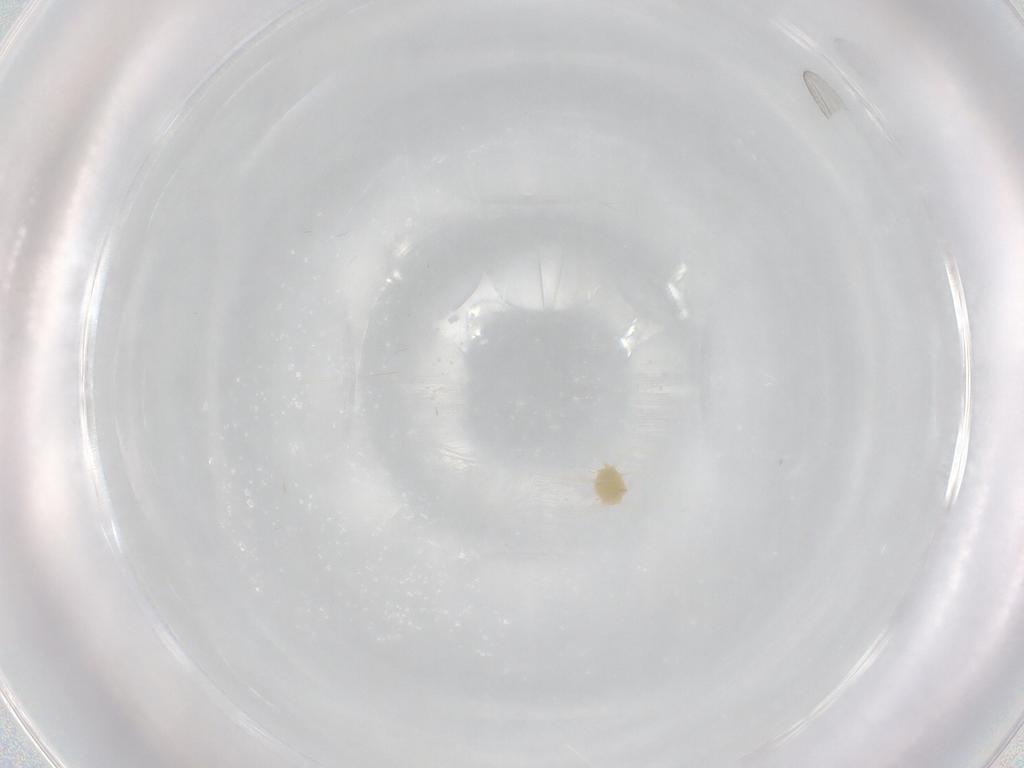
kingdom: Animalia
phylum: Arthropoda
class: Arachnida
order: Trombidiformes
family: Tetranychidae
